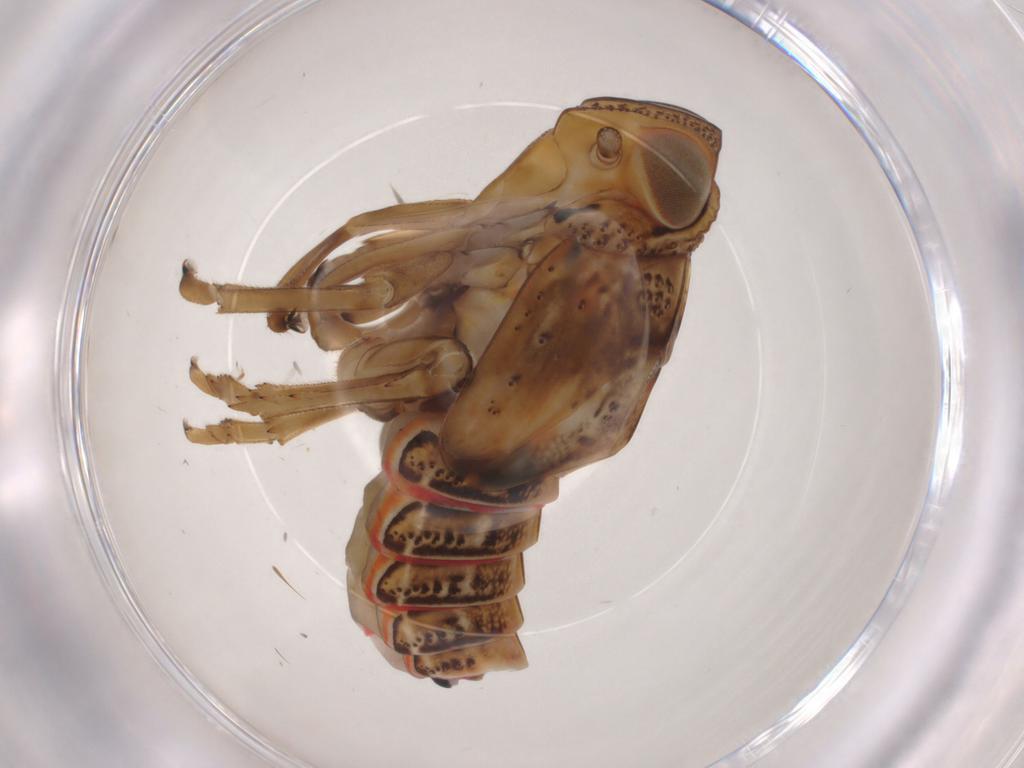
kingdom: Animalia
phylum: Arthropoda
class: Insecta
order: Hemiptera
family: Issidae
